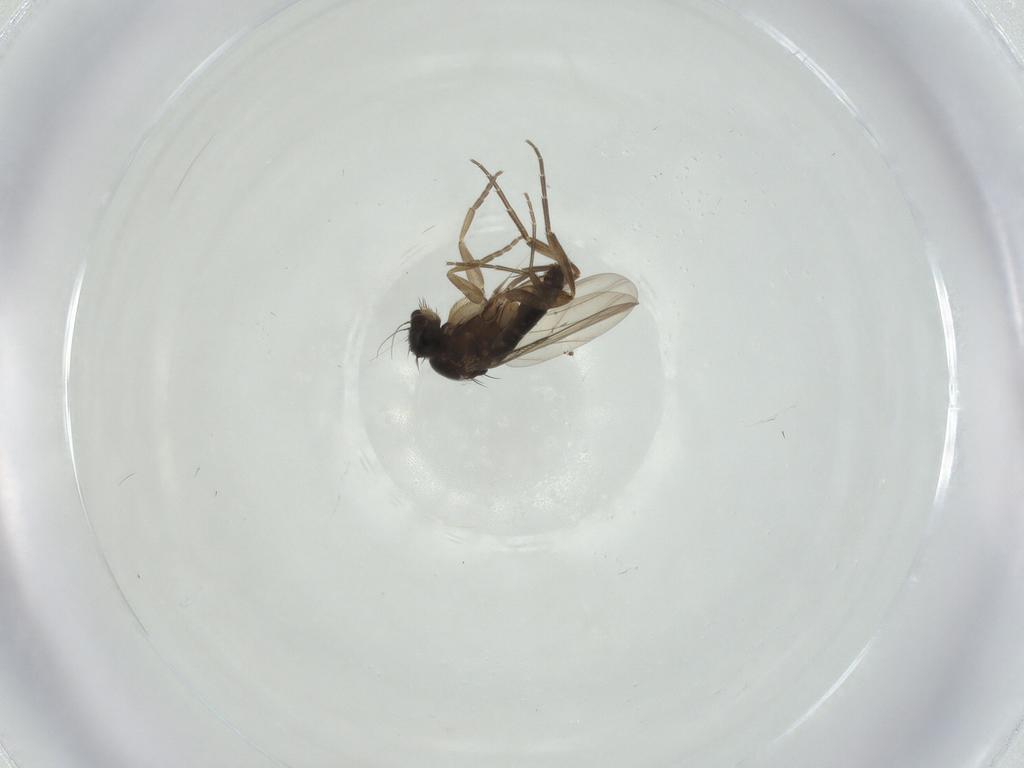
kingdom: Animalia
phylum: Arthropoda
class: Insecta
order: Diptera
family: Phoridae
